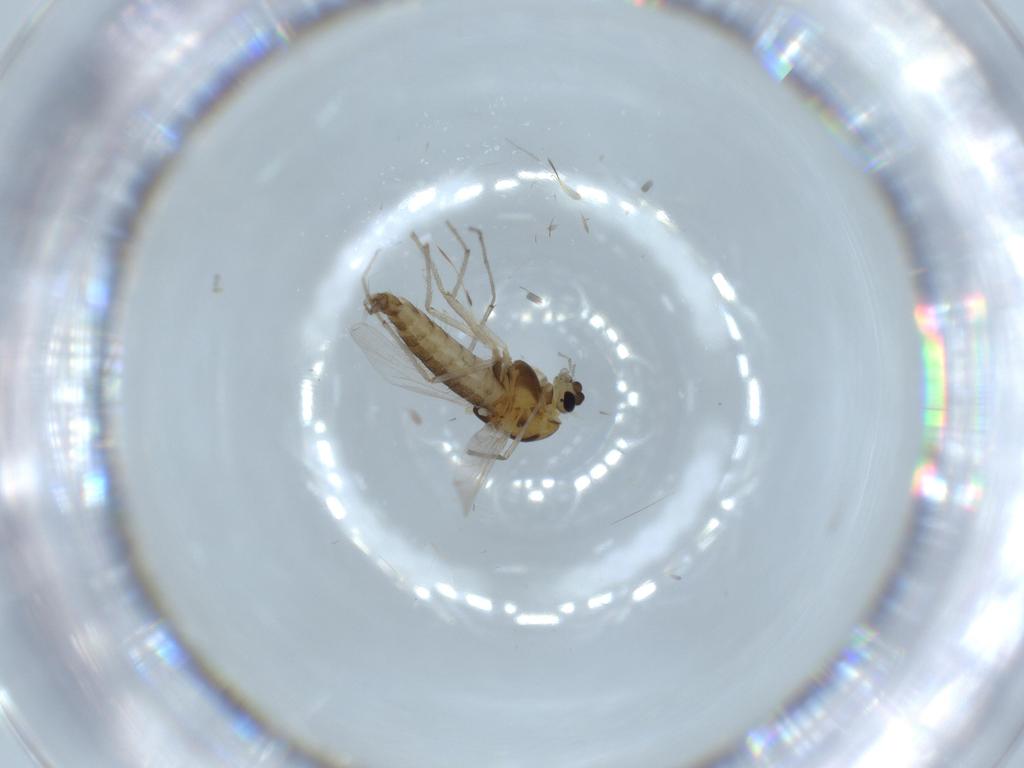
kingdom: Animalia
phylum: Arthropoda
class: Insecta
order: Diptera
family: Chironomidae
